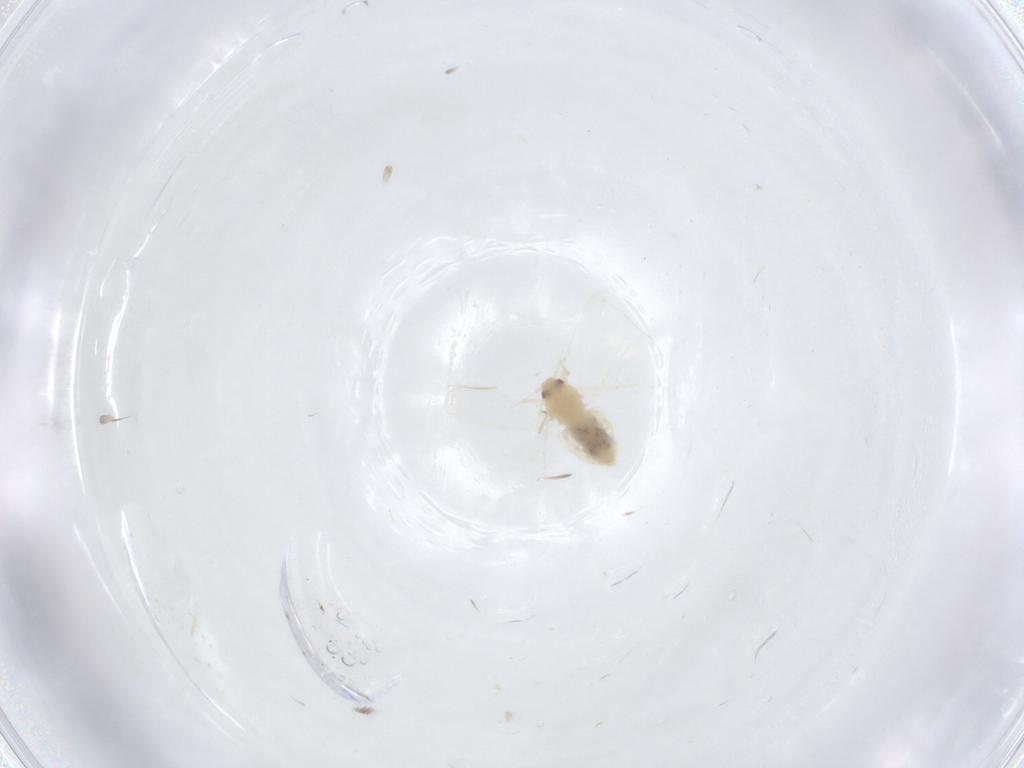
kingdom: Animalia
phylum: Arthropoda
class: Insecta
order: Hemiptera
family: Aleyrodidae
